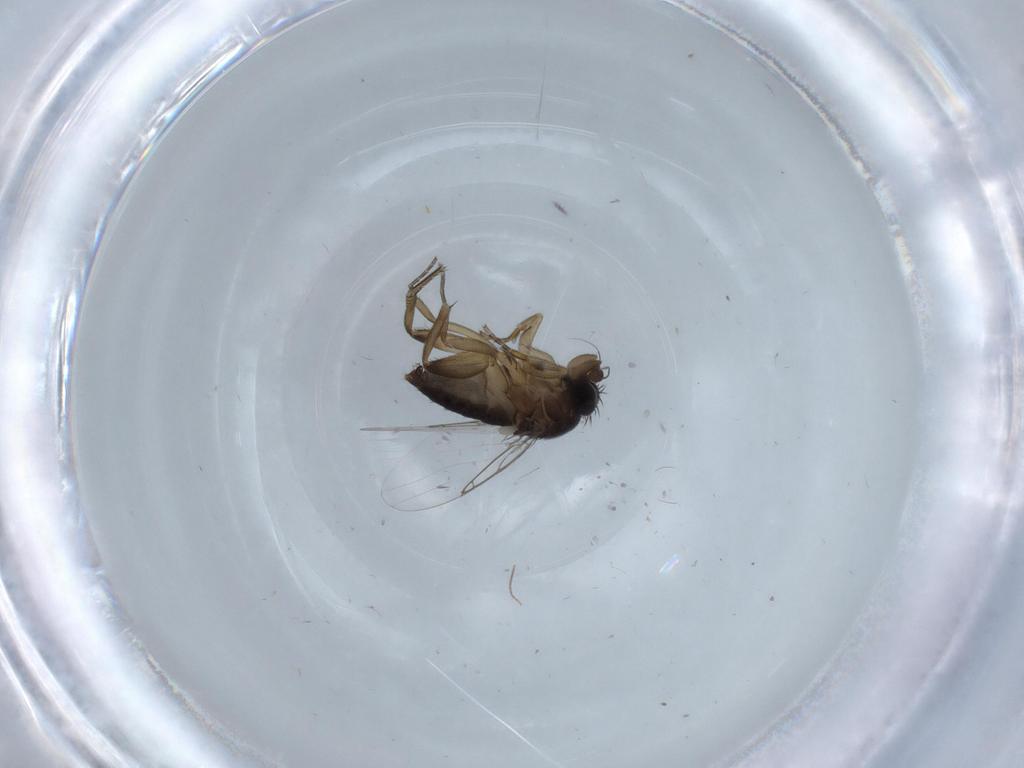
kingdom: Animalia
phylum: Arthropoda
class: Insecta
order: Diptera
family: Phoridae
